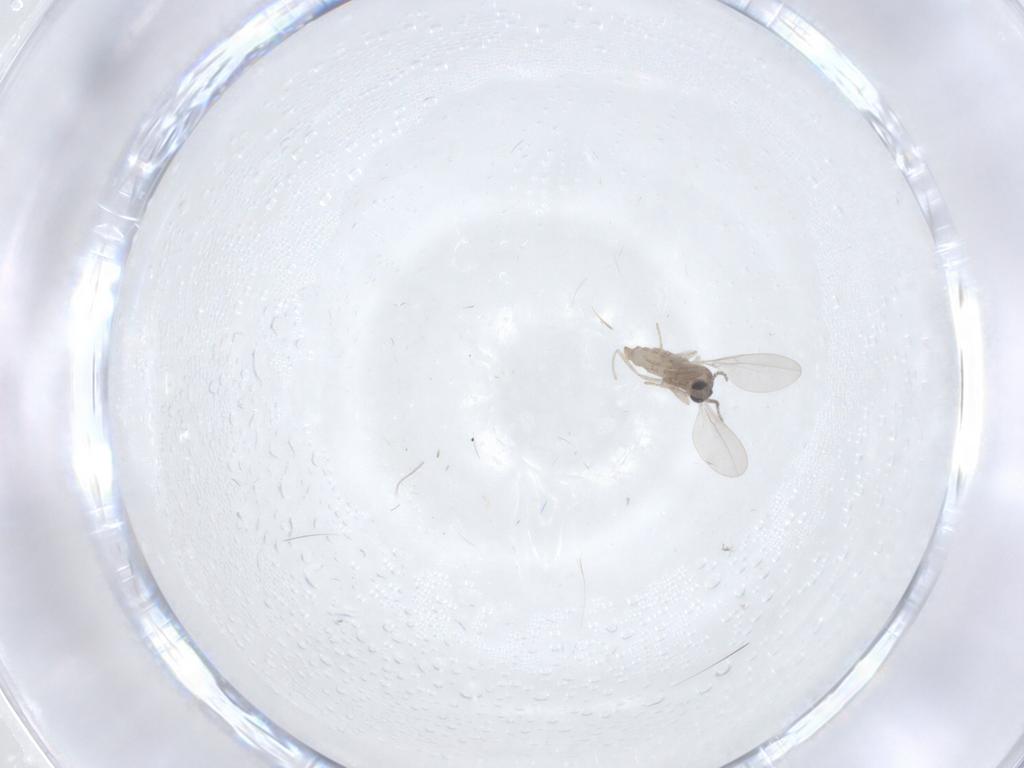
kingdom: Animalia
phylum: Arthropoda
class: Insecta
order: Diptera
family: Cecidomyiidae
